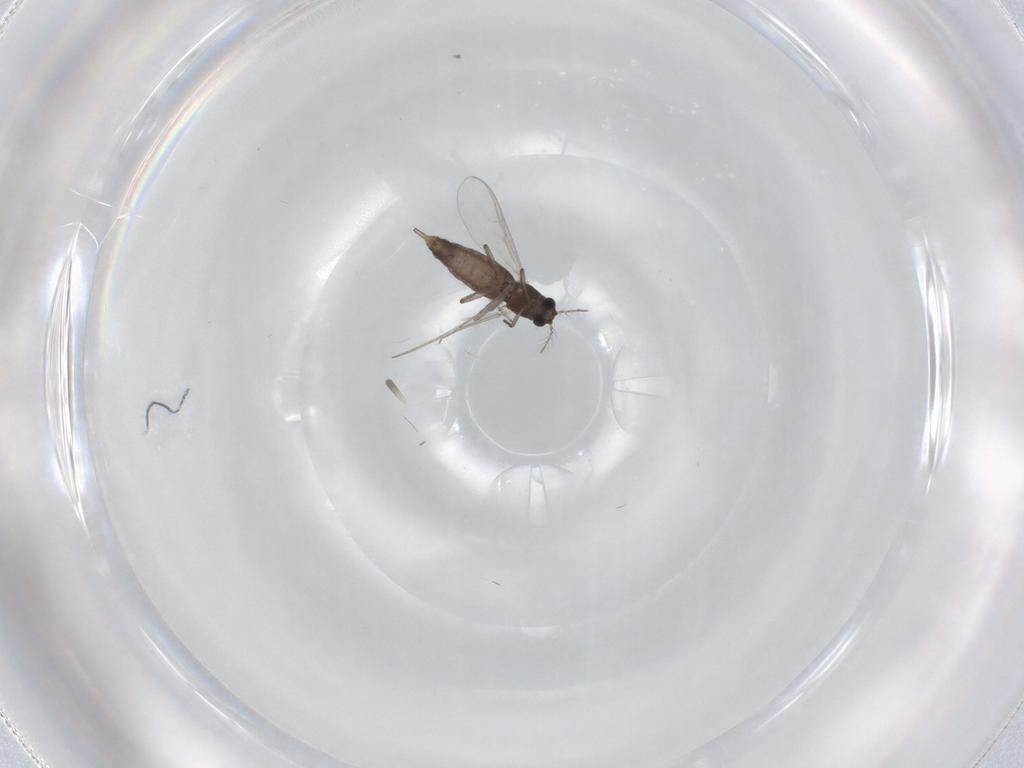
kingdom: Animalia
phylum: Arthropoda
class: Insecta
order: Diptera
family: Chironomidae
